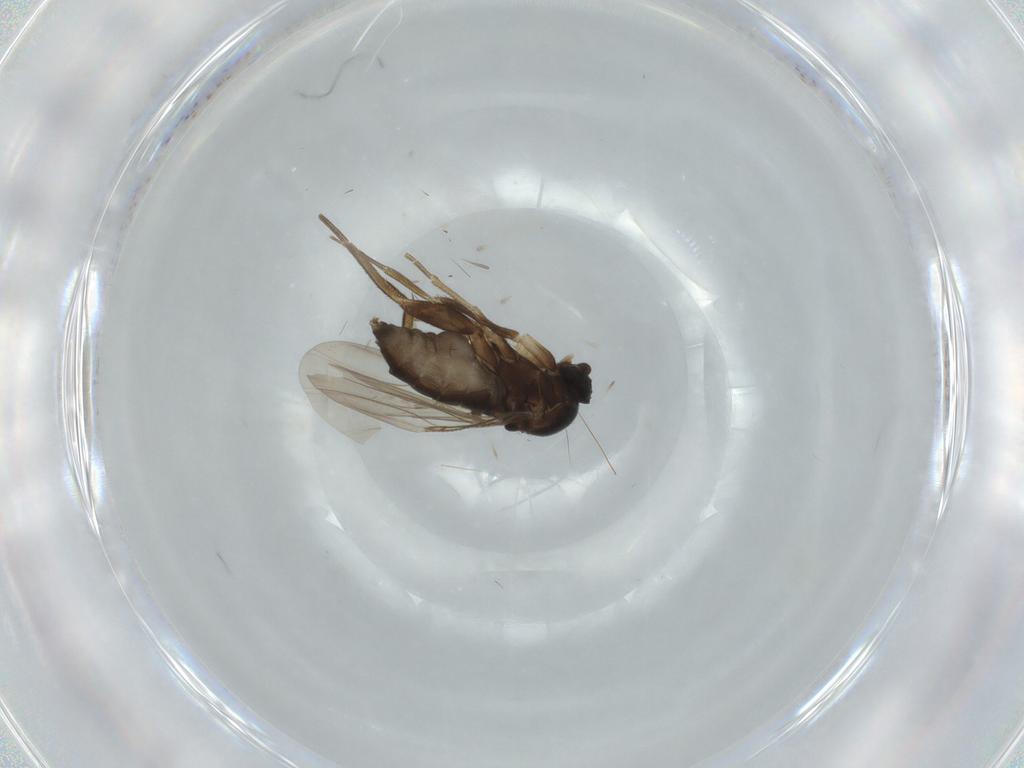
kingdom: Animalia
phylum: Arthropoda
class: Insecta
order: Diptera
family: Phoridae
